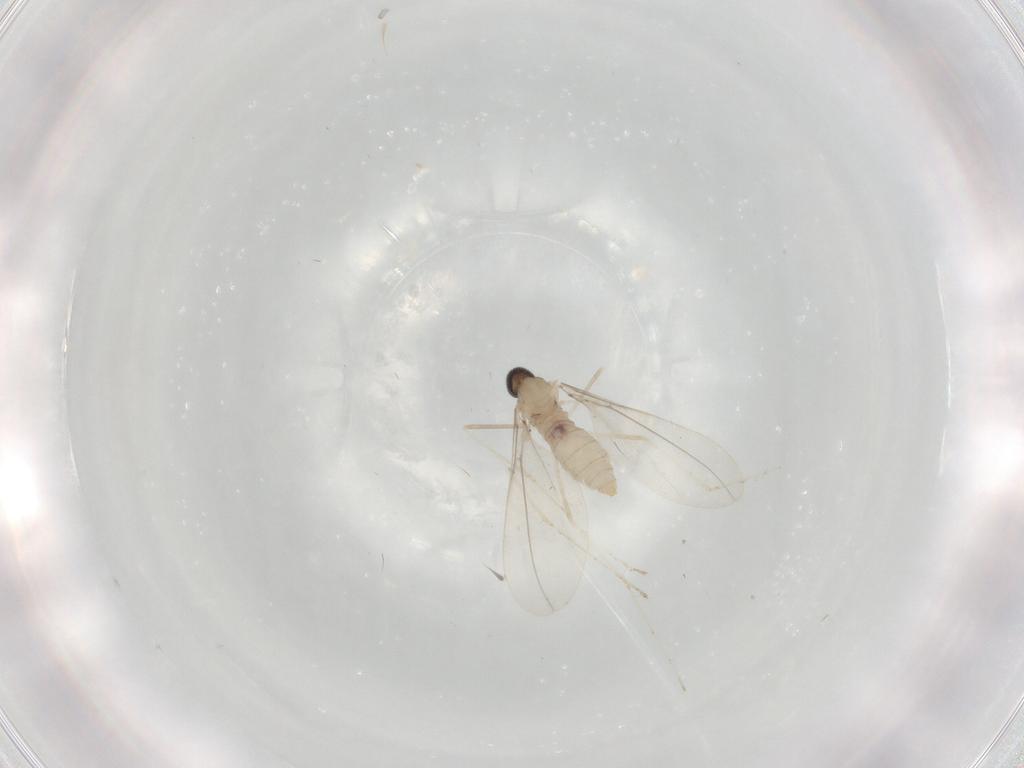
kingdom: Animalia
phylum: Arthropoda
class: Insecta
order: Diptera
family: Cecidomyiidae
